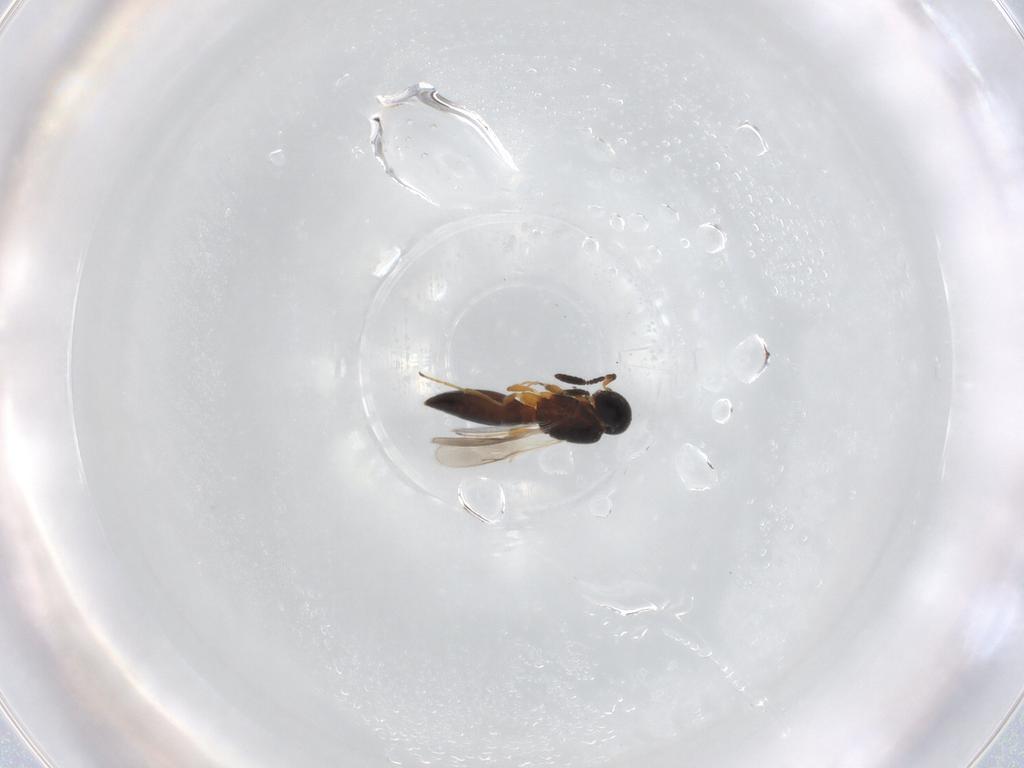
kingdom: Animalia
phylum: Arthropoda
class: Insecta
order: Hymenoptera
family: Scelionidae
